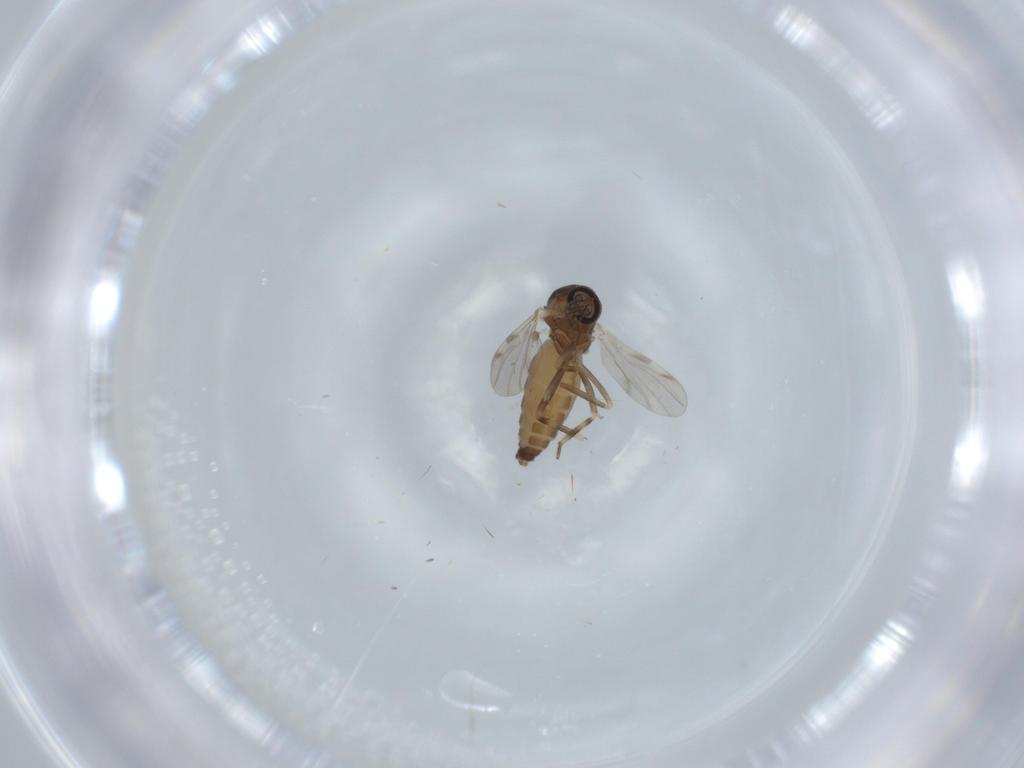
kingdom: Animalia
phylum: Arthropoda
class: Insecta
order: Diptera
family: Ceratopogonidae
